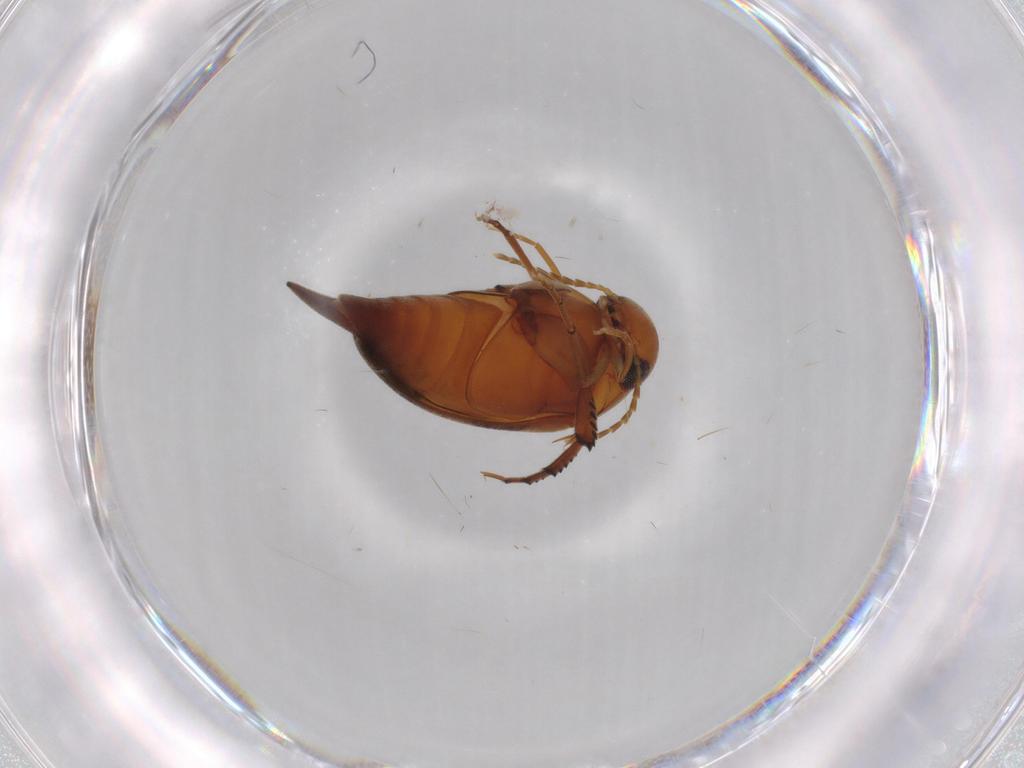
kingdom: Animalia
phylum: Arthropoda
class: Insecta
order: Coleoptera
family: Mordellidae
